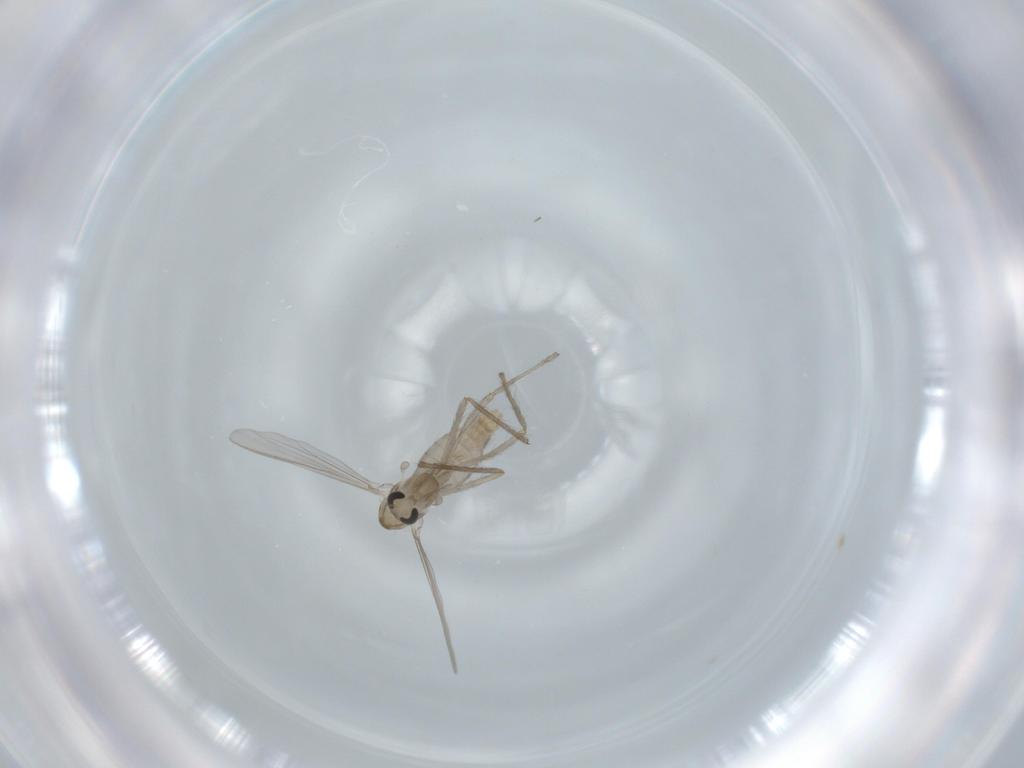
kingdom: Animalia
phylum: Arthropoda
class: Insecta
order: Diptera
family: Chironomidae
